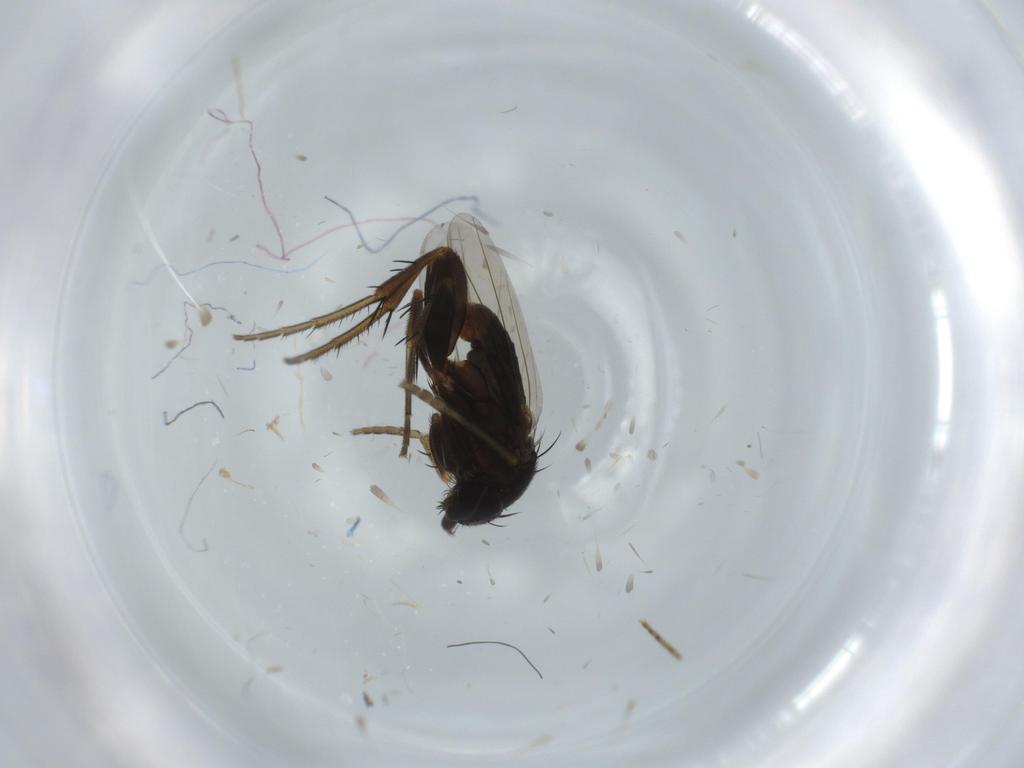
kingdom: Animalia
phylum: Arthropoda
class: Insecta
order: Diptera
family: Phoridae
